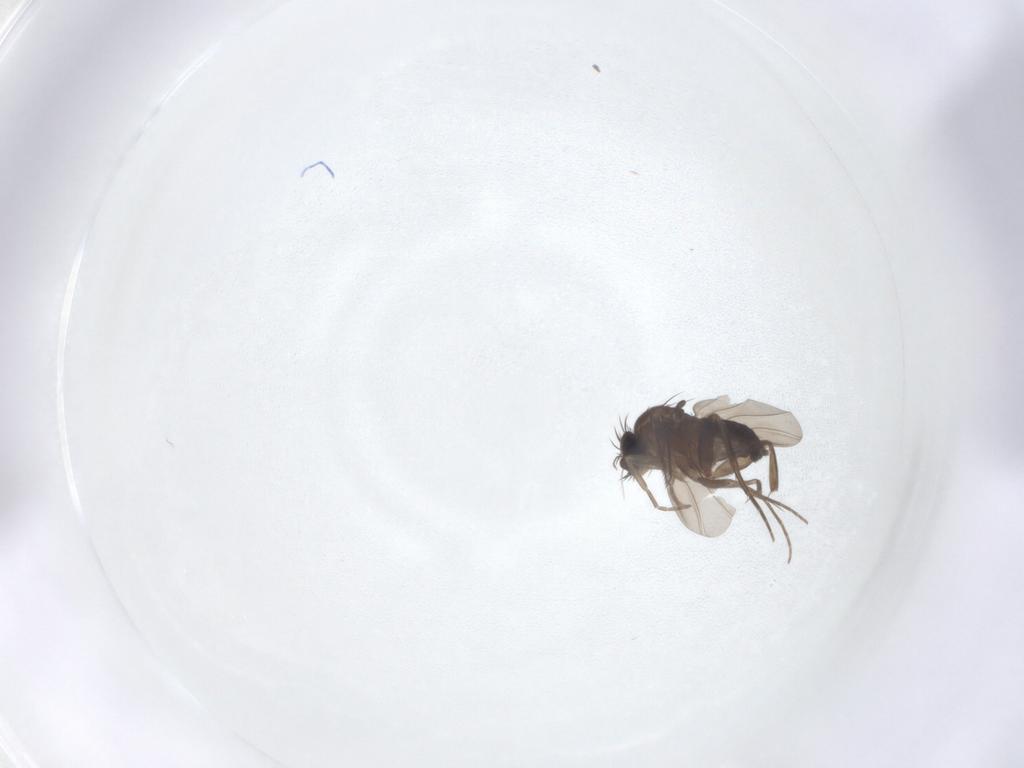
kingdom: Animalia
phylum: Arthropoda
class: Insecta
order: Diptera
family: Phoridae
